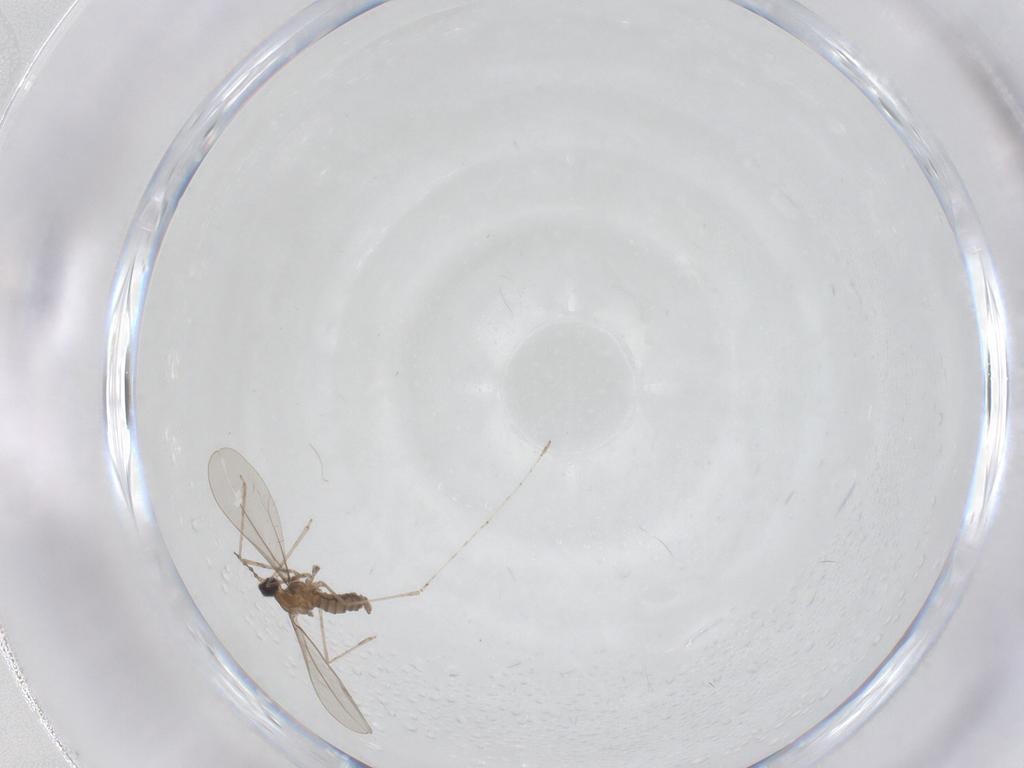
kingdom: Animalia
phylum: Arthropoda
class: Insecta
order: Diptera
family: Cecidomyiidae
